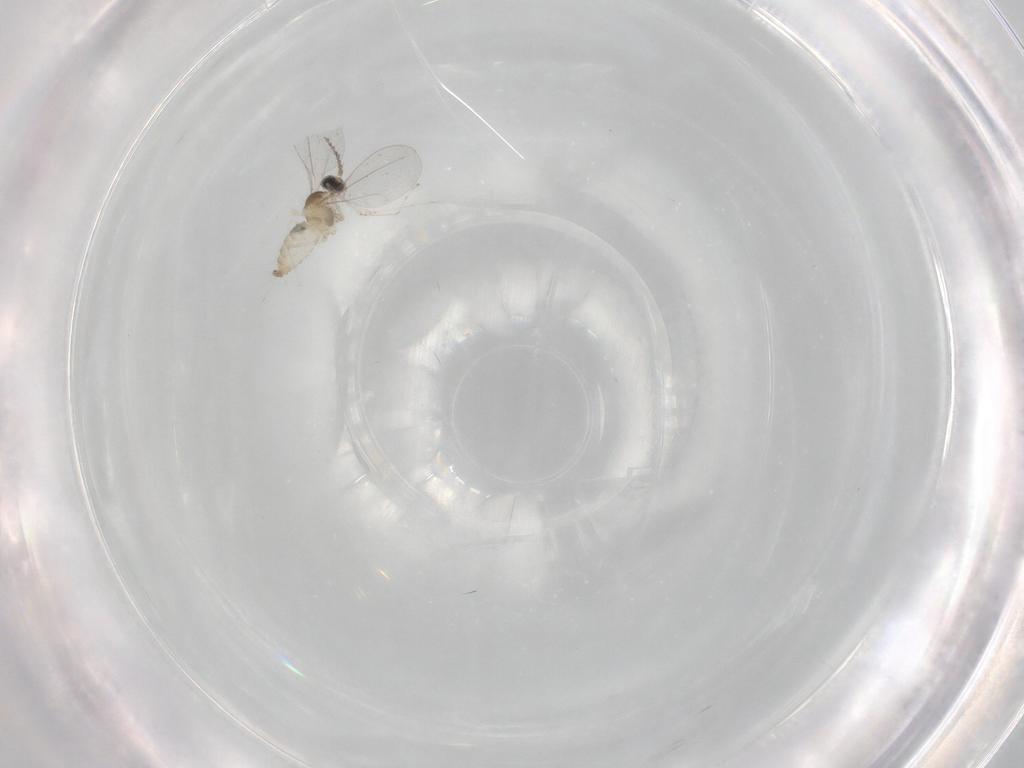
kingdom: Animalia
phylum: Arthropoda
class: Insecta
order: Diptera
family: Cecidomyiidae
